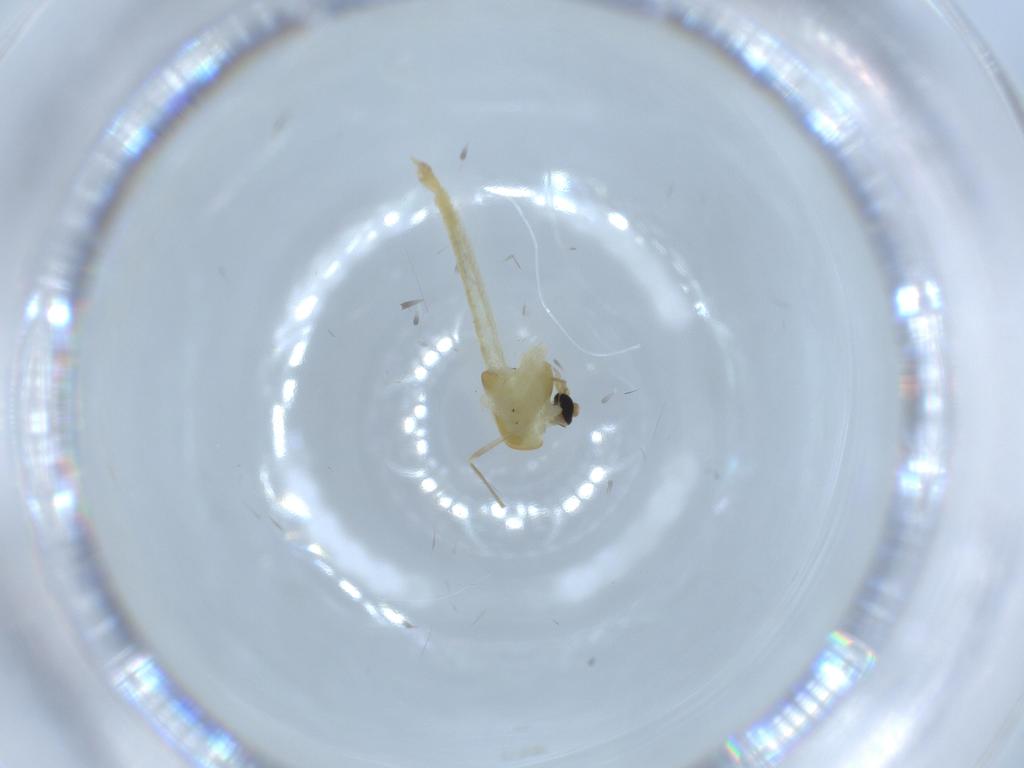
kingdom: Animalia
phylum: Arthropoda
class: Insecta
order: Diptera
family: Chironomidae
